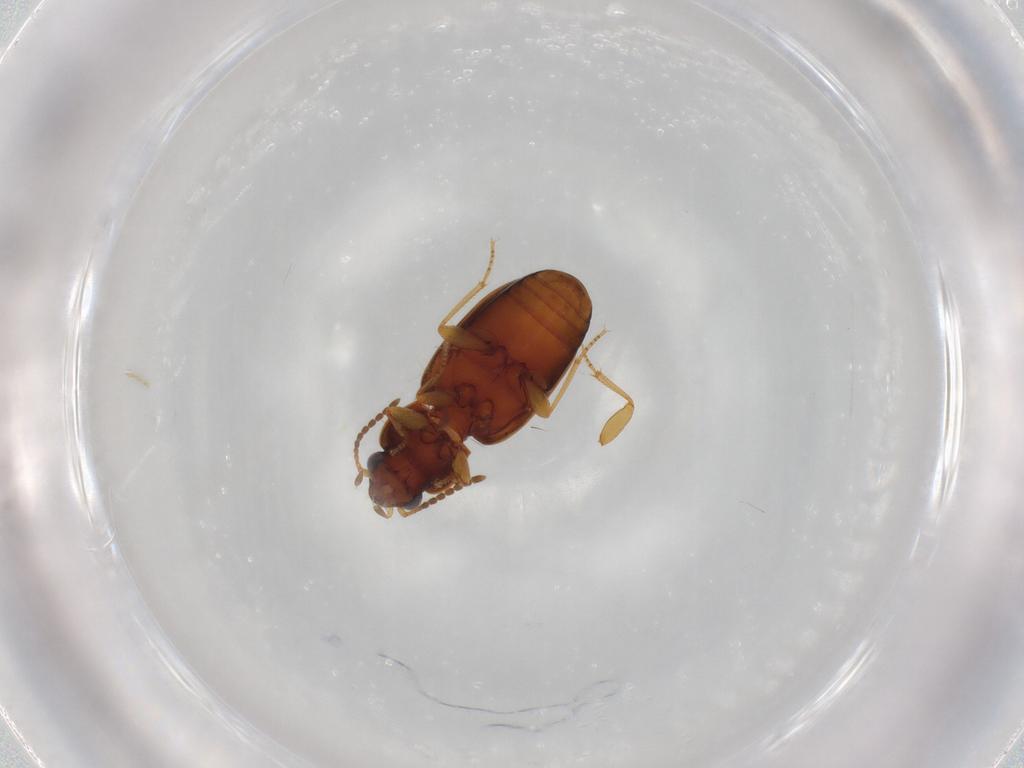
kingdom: Animalia
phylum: Arthropoda
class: Insecta
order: Coleoptera
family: Carabidae
